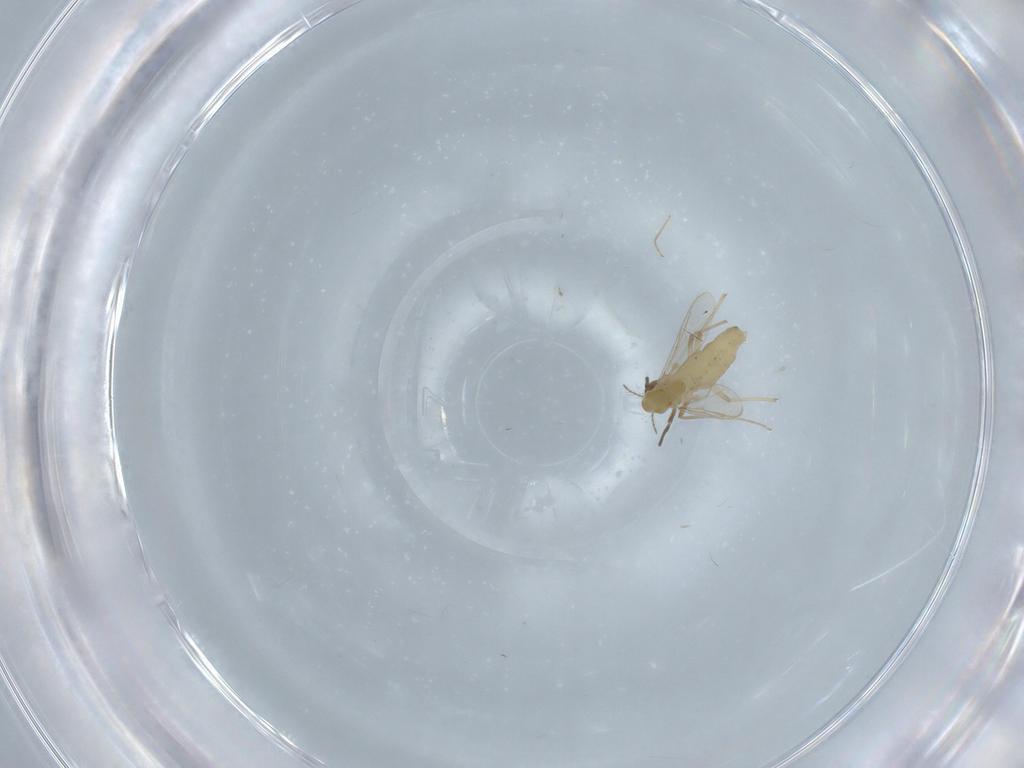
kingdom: Animalia
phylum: Arthropoda
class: Insecta
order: Diptera
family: Chironomidae
